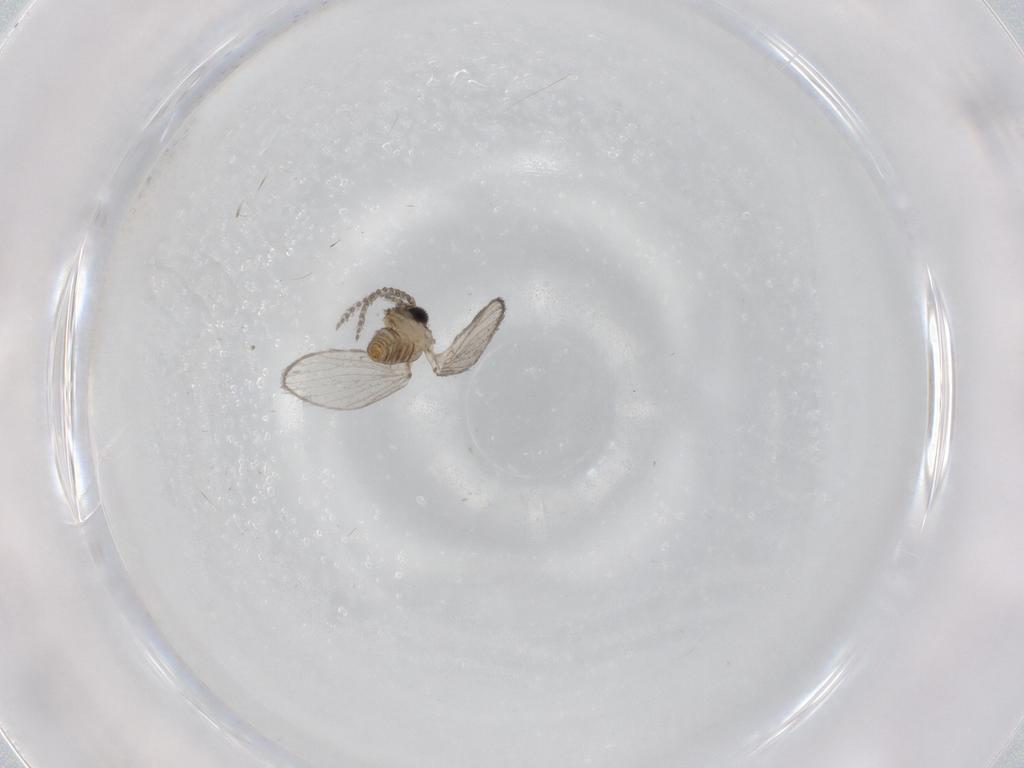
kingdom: Animalia
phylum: Arthropoda
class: Insecta
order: Diptera
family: Psychodidae
